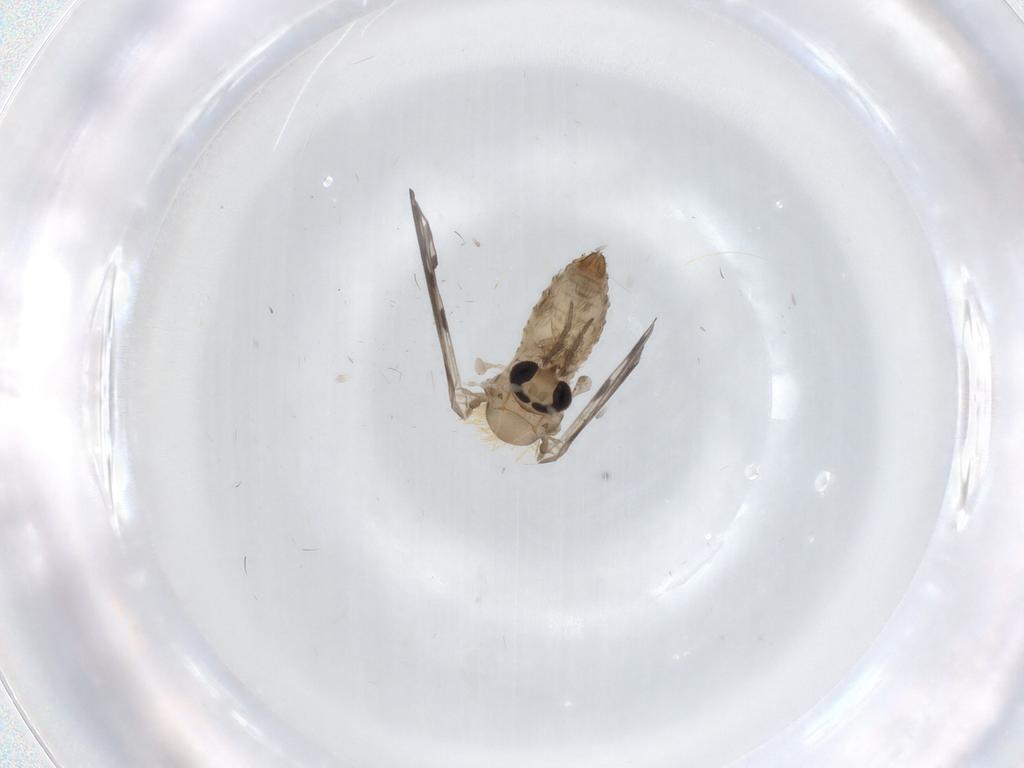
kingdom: Animalia
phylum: Arthropoda
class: Insecta
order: Diptera
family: Psychodidae
